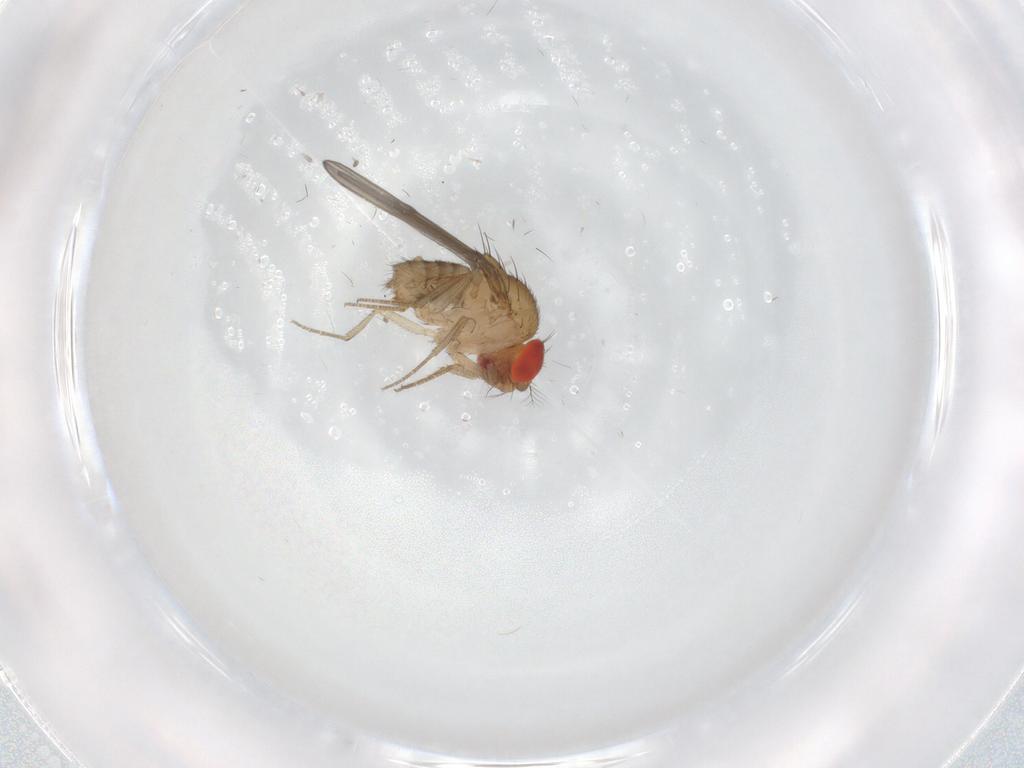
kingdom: Animalia
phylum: Arthropoda
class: Insecta
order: Diptera
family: Drosophilidae
